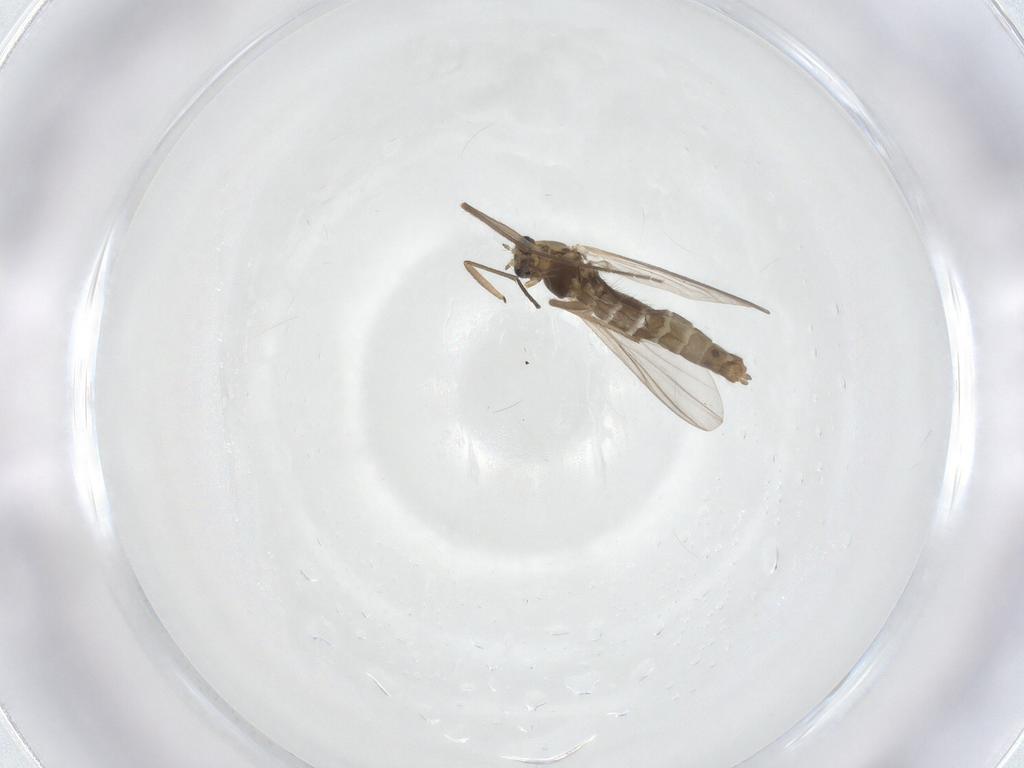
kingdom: Animalia
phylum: Arthropoda
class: Insecta
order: Diptera
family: Chironomidae
